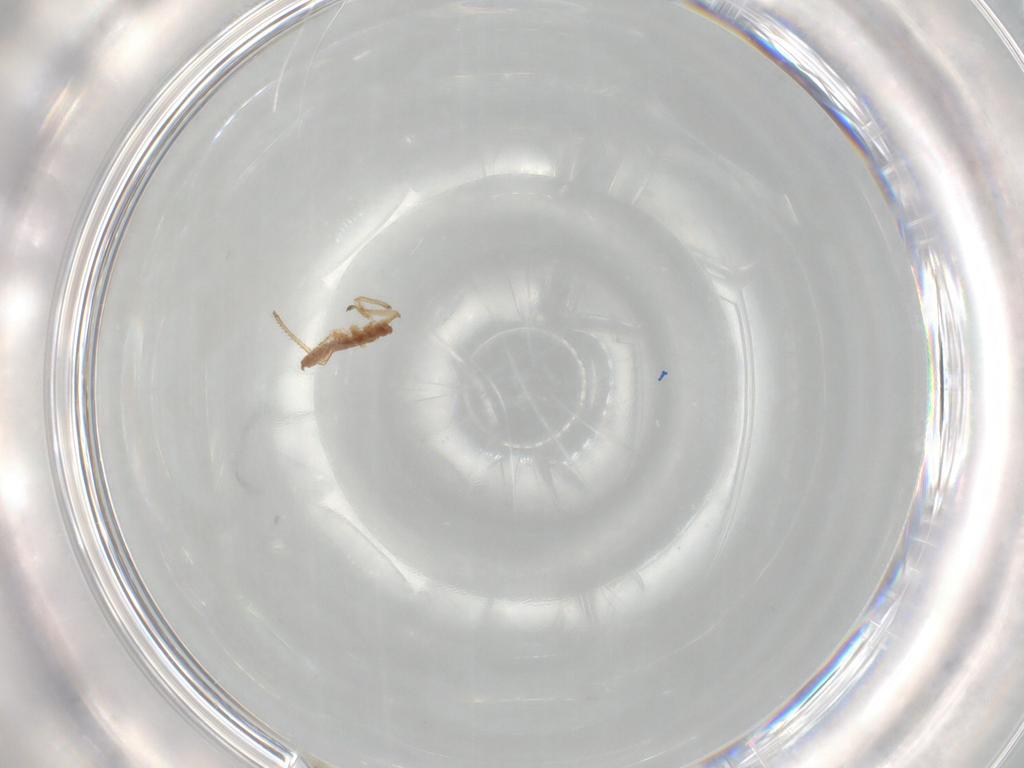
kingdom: Animalia
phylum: Arthropoda
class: Insecta
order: Hemiptera
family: Aphididae
